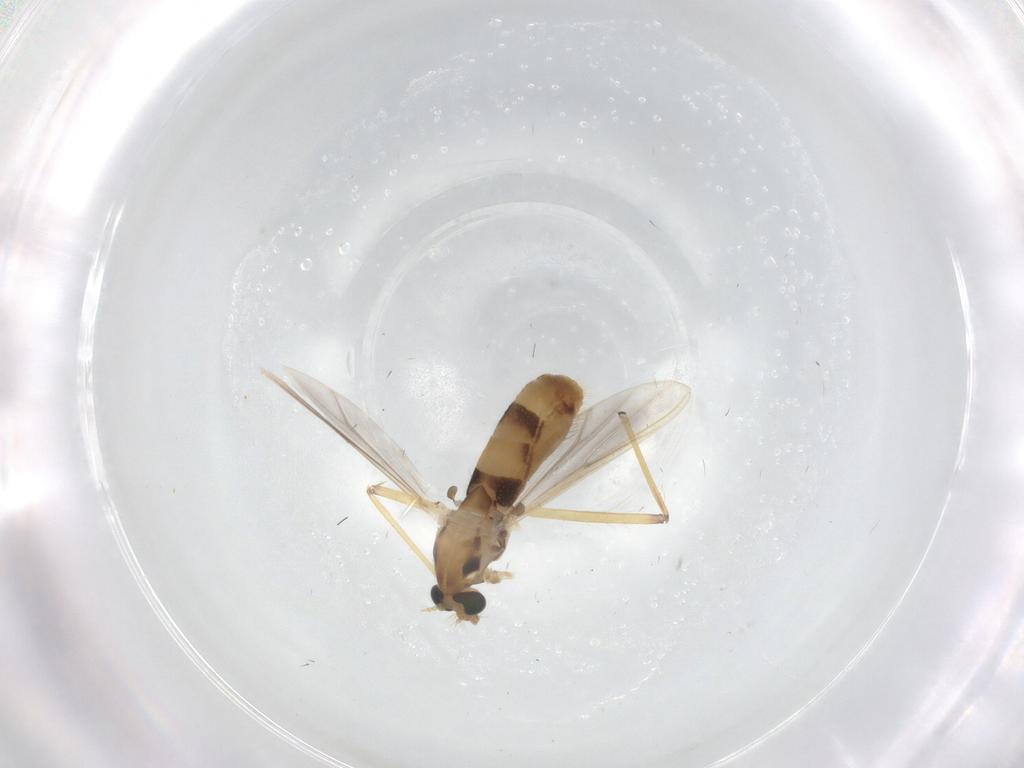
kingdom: Animalia
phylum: Arthropoda
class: Insecta
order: Diptera
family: Chironomidae
